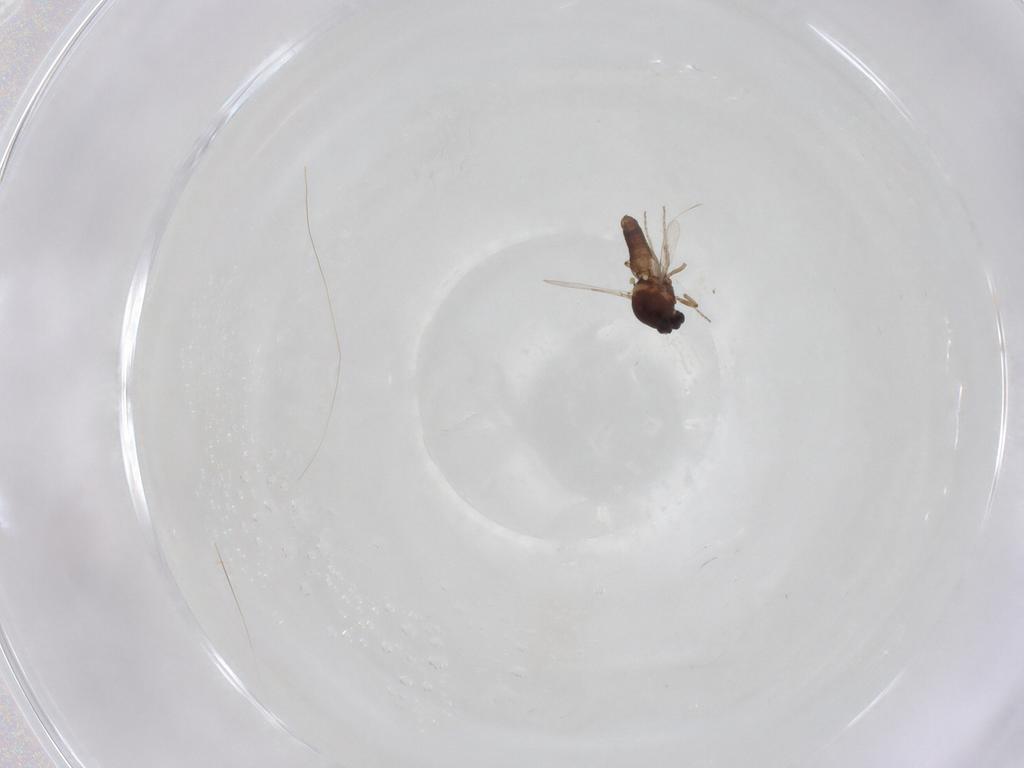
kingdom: Animalia
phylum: Arthropoda
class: Insecta
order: Diptera
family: Ceratopogonidae
